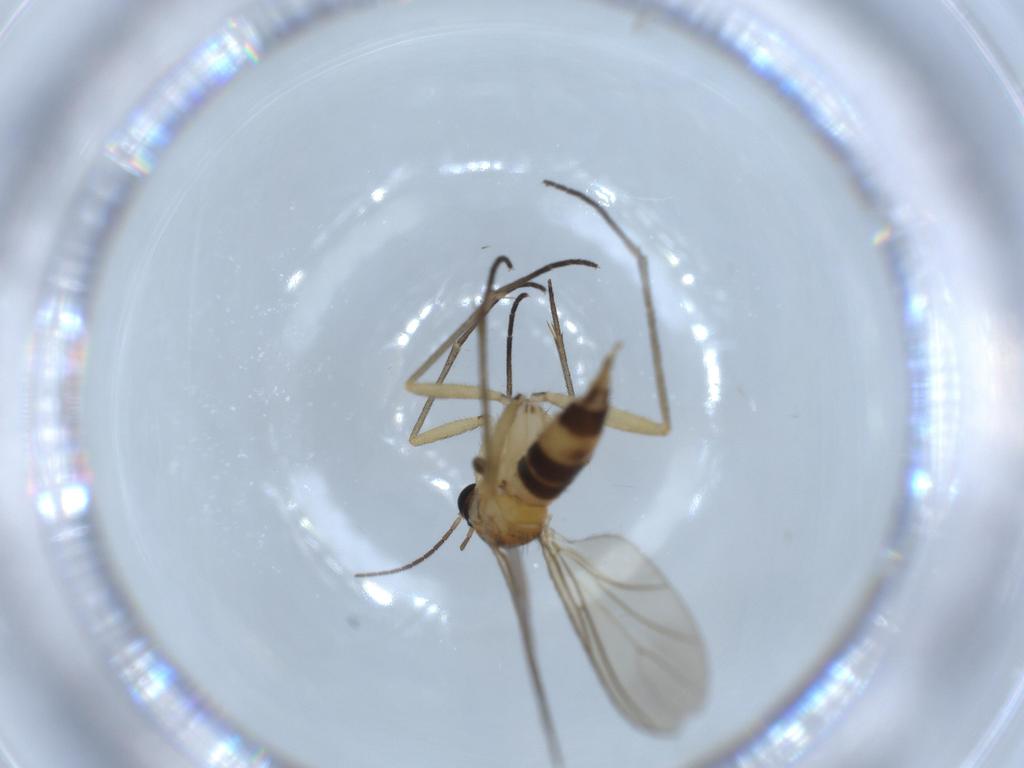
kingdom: Animalia
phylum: Arthropoda
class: Insecta
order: Diptera
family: Phoridae
